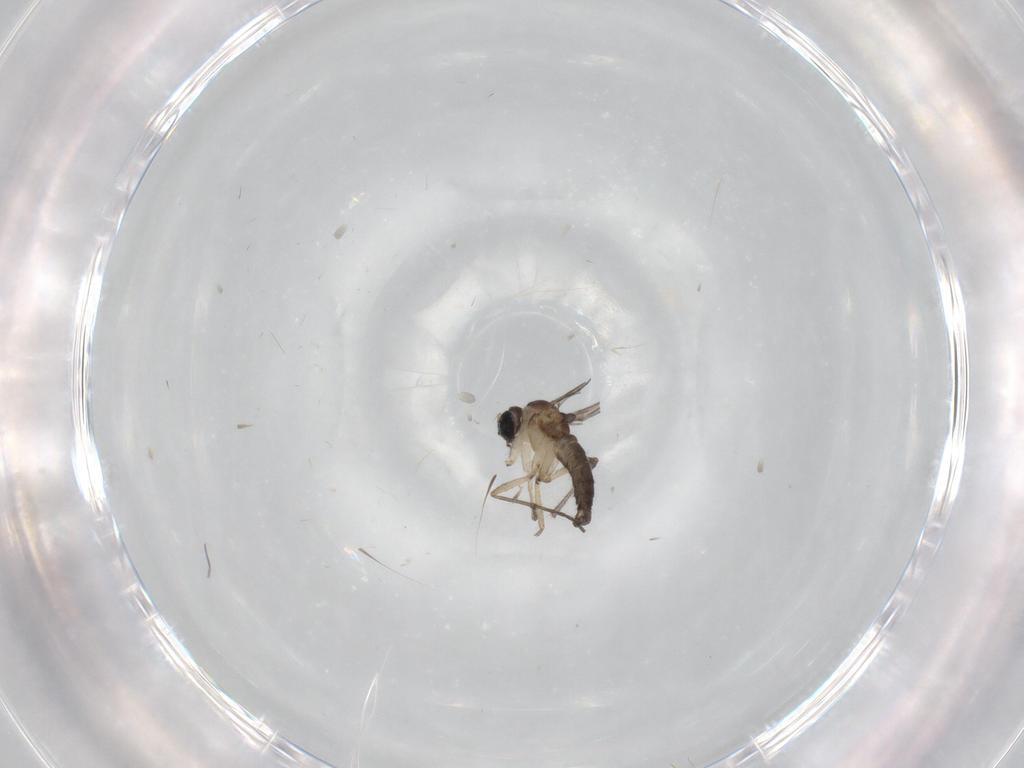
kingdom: Animalia
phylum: Arthropoda
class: Insecta
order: Diptera
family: Sciaridae
